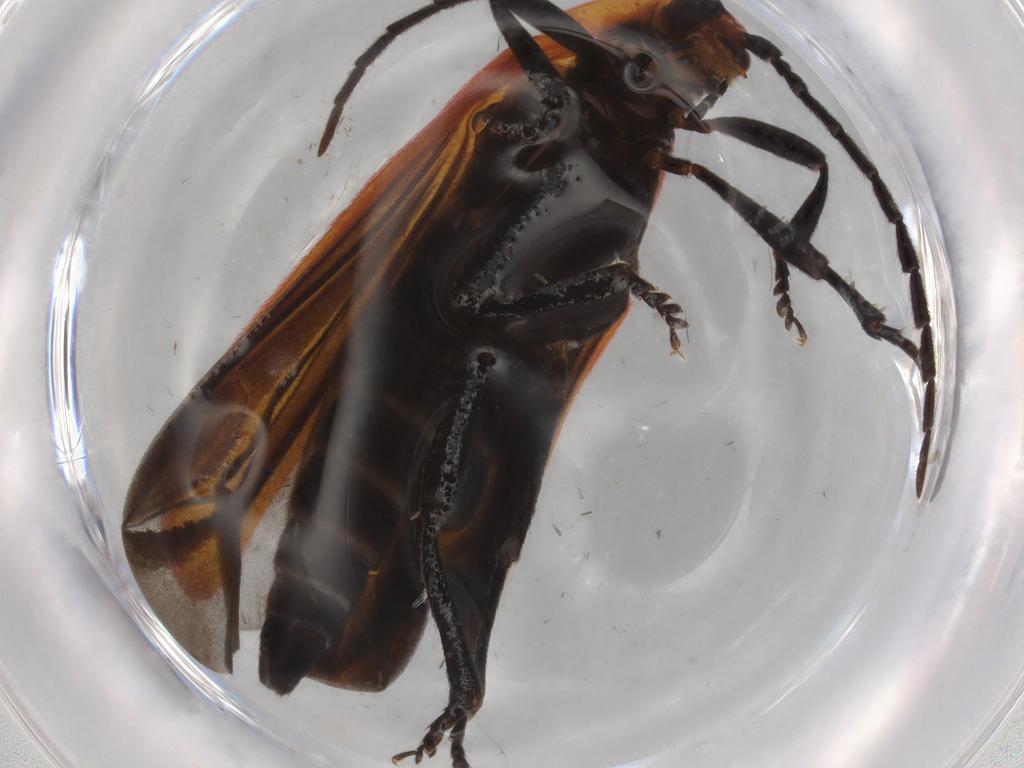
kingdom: Animalia
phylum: Arthropoda
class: Insecta
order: Coleoptera
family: Lycidae
